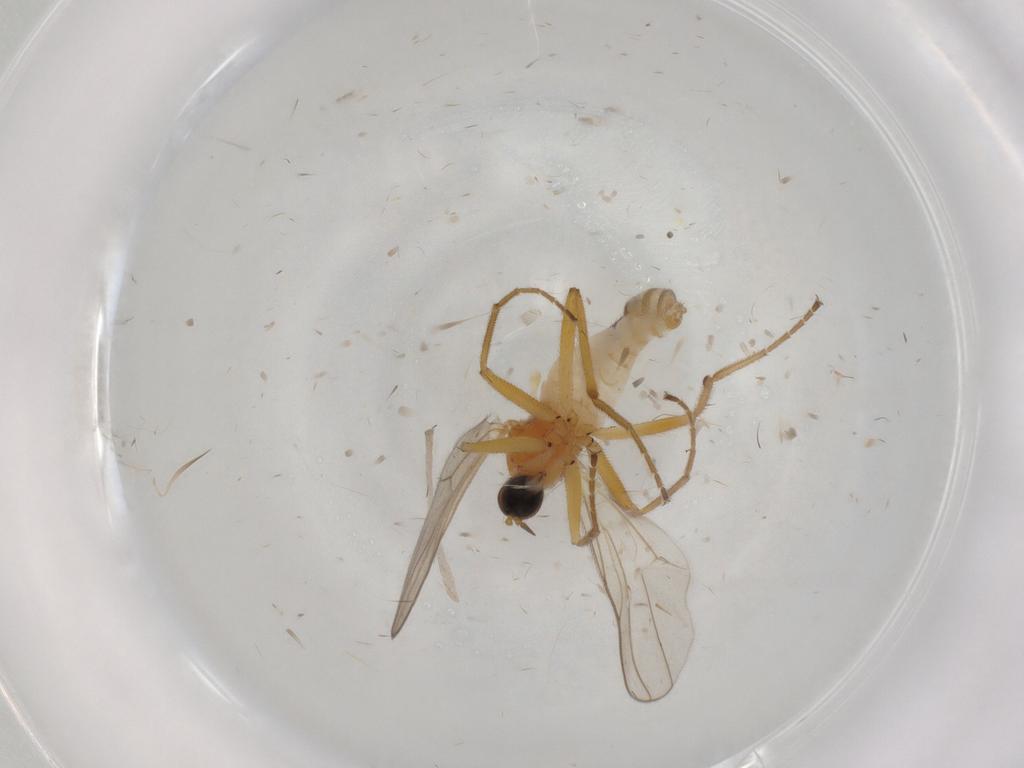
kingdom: Animalia
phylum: Arthropoda
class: Insecta
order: Diptera
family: Hybotidae
